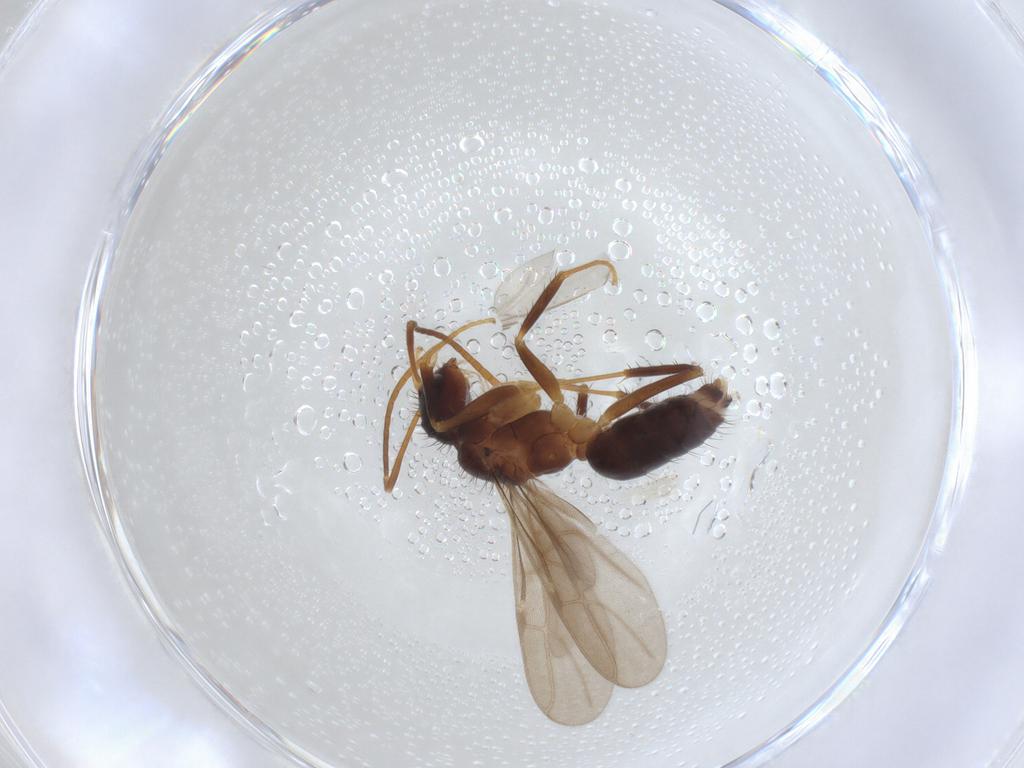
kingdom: Animalia
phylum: Arthropoda
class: Insecta
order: Hymenoptera
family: Formicidae
